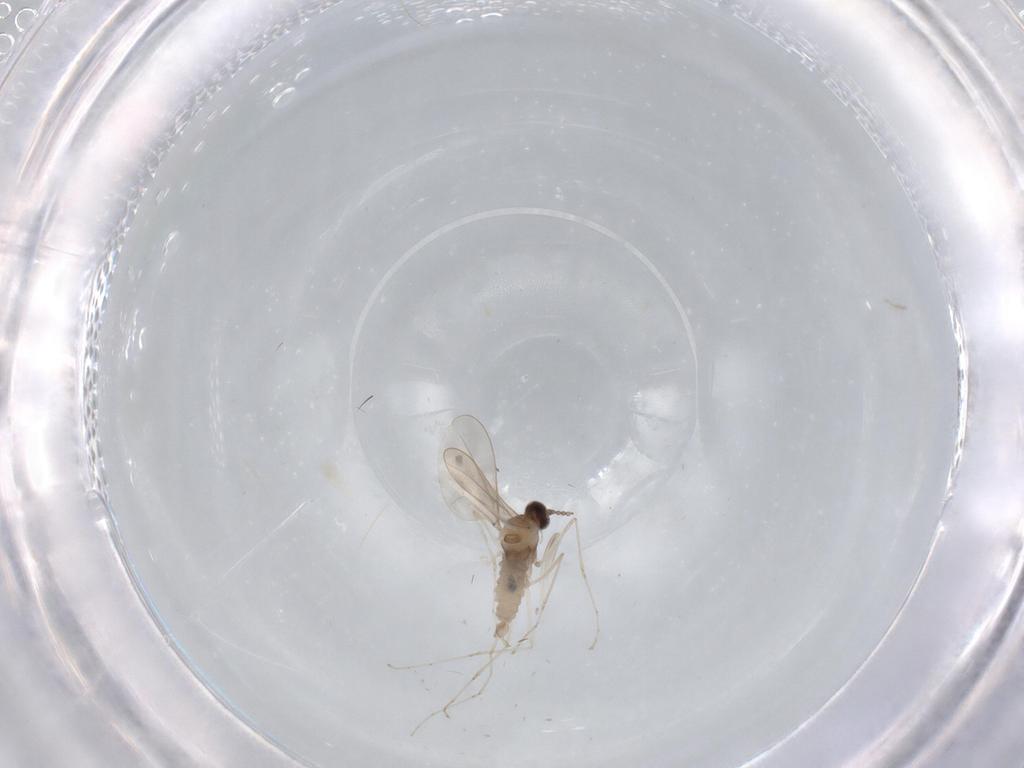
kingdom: Animalia
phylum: Arthropoda
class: Insecta
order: Diptera
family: Cecidomyiidae
